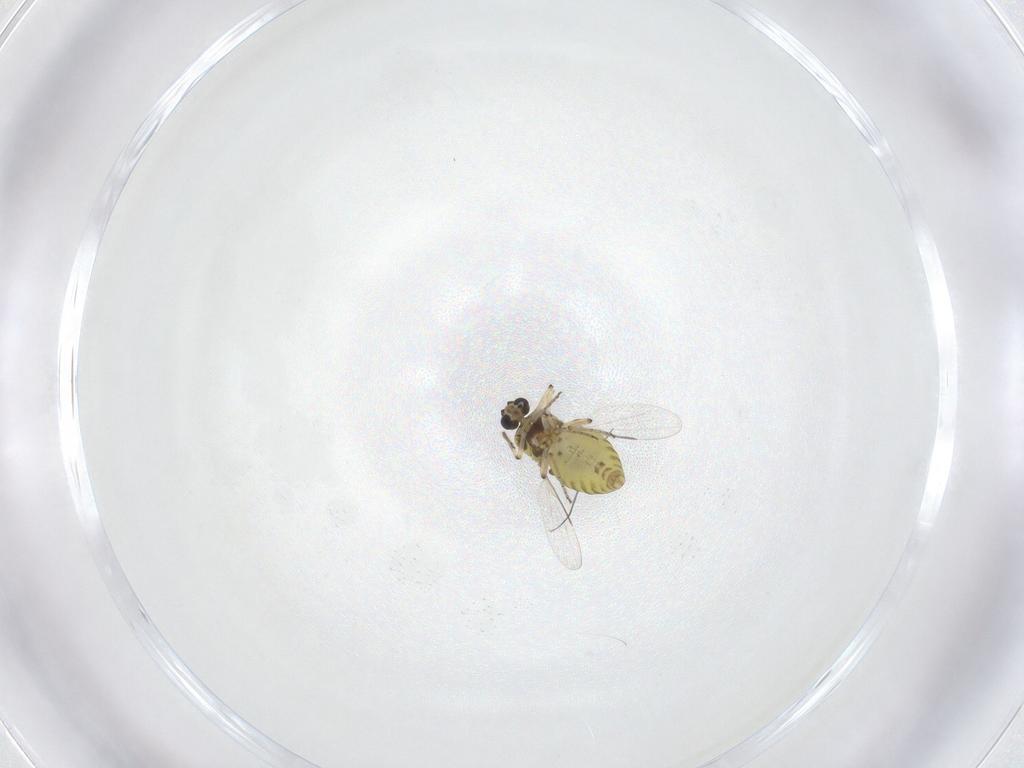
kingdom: Animalia
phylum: Arthropoda
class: Insecta
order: Diptera
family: Ceratopogonidae
